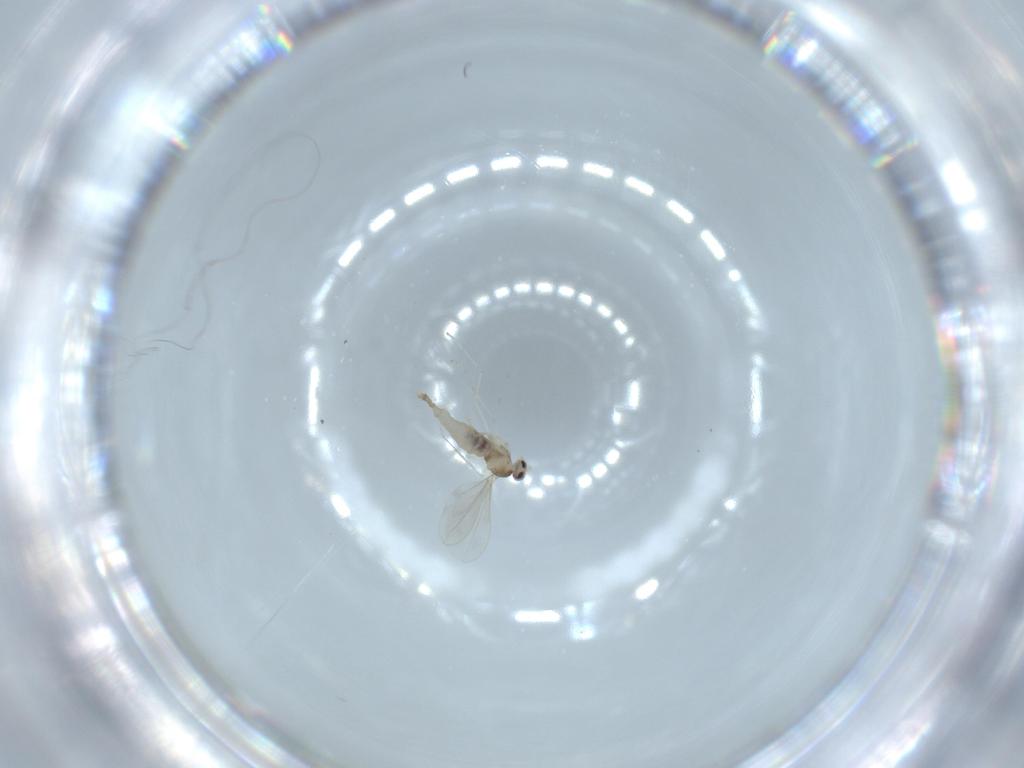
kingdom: Animalia
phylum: Arthropoda
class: Insecta
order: Diptera
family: Cecidomyiidae
